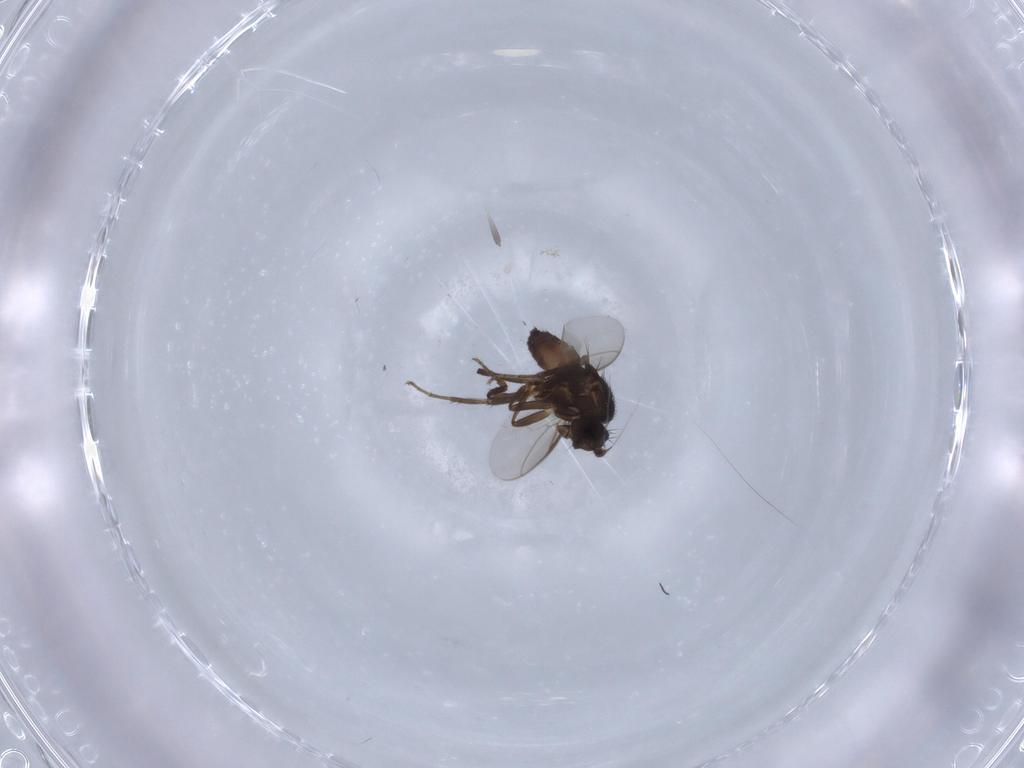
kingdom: Animalia
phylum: Arthropoda
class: Insecta
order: Diptera
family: Sphaeroceridae
